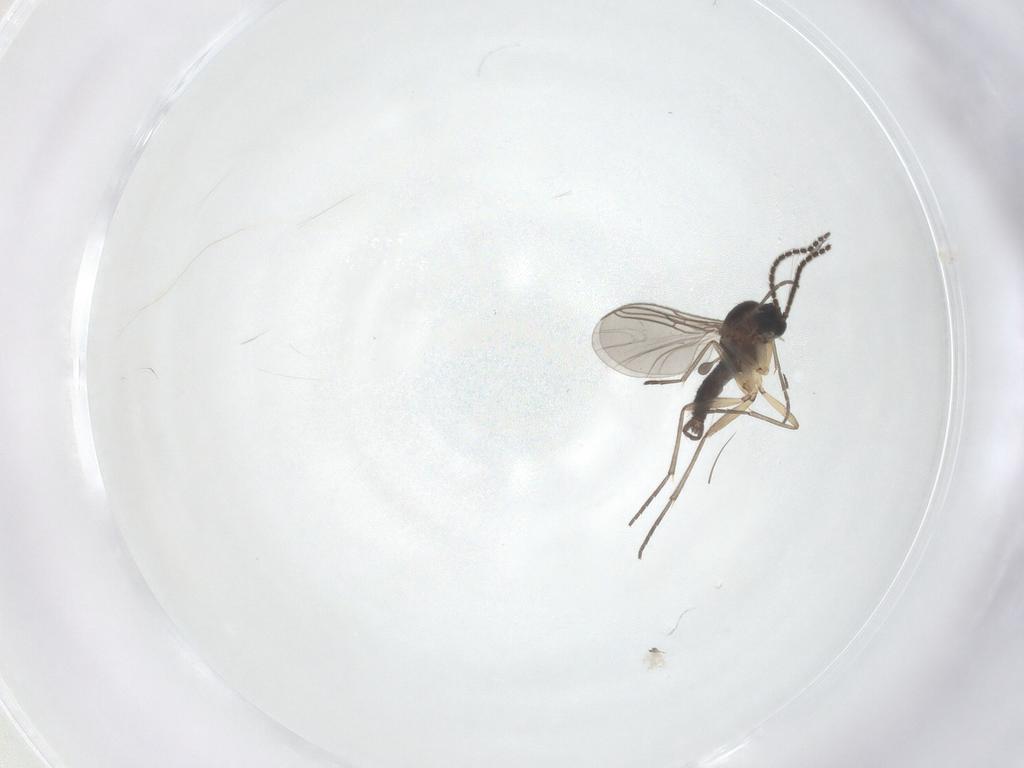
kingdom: Animalia
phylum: Arthropoda
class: Insecta
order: Diptera
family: Sciaridae
